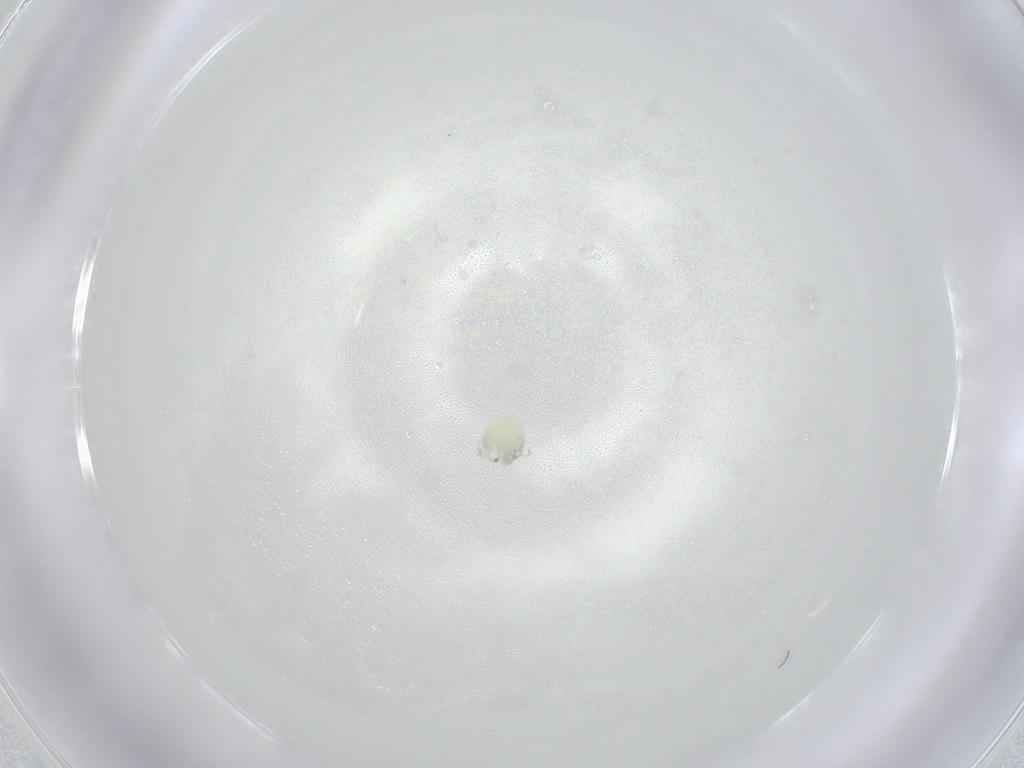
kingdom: Animalia
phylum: Arthropoda
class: Arachnida
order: Trombidiformes
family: Arrenuridae
